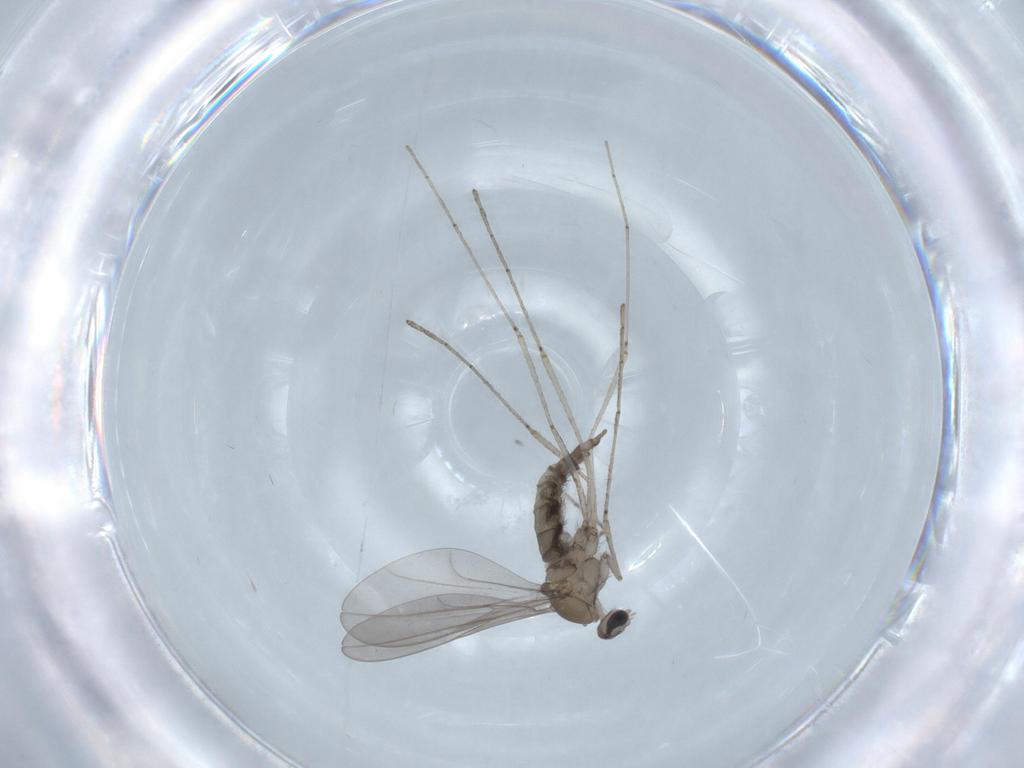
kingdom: Animalia
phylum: Arthropoda
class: Insecta
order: Diptera
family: Cecidomyiidae
